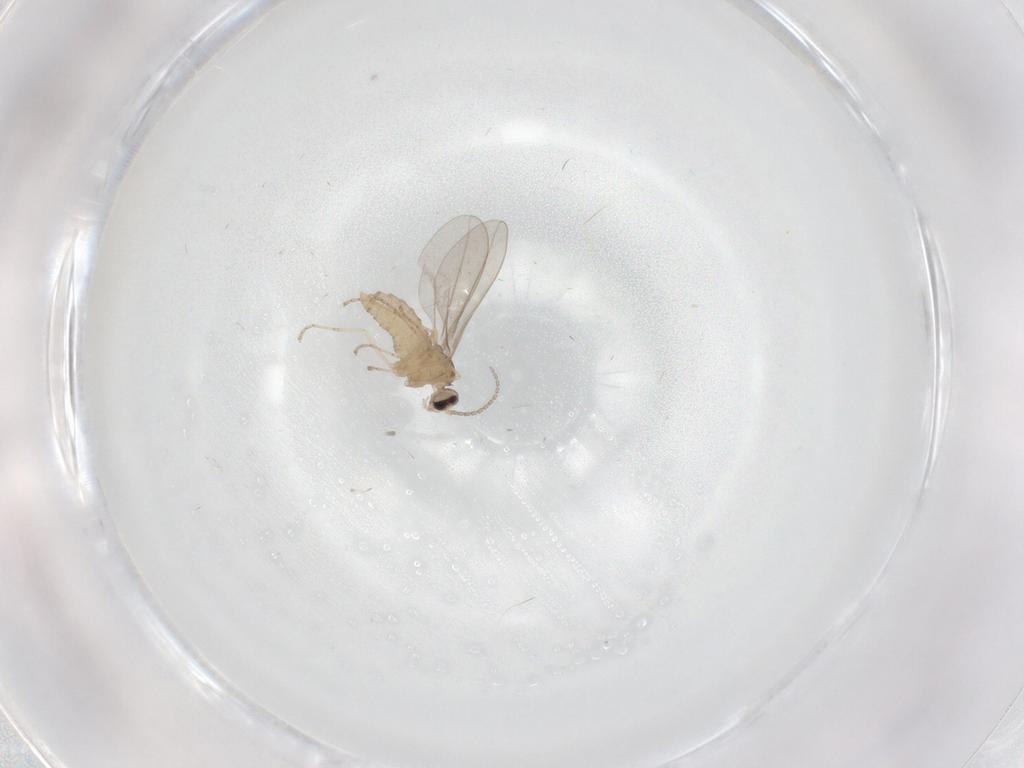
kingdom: Animalia
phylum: Arthropoda
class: Insecta
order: Diptera
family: Cecidomyiidae
